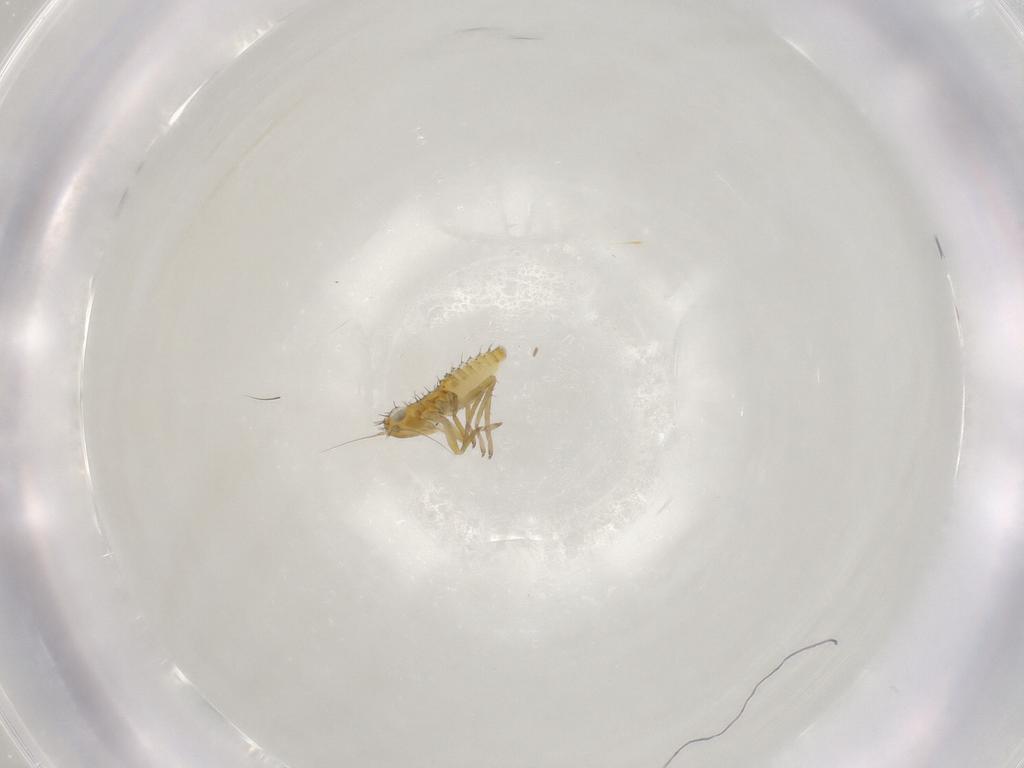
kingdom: Animalia
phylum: Arthropoda
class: Insecta
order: Hemiptera
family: Cicadellidae
